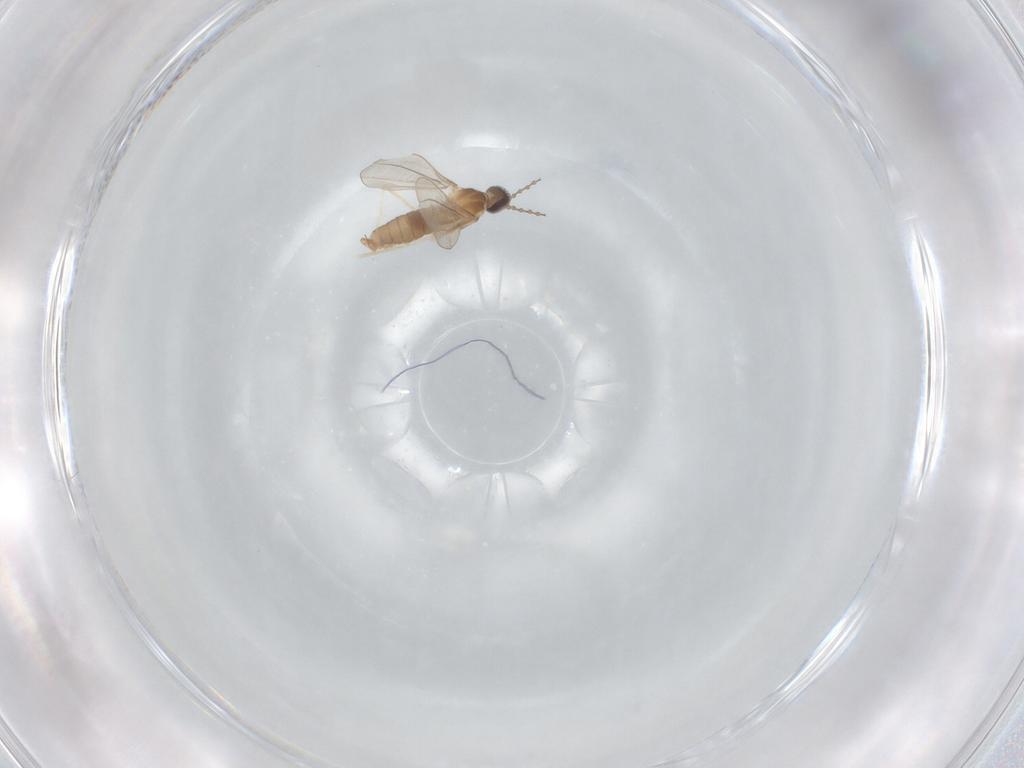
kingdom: Animalia
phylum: Arthropoda
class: Insecta
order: Diptera
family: Cecidomyiidae
